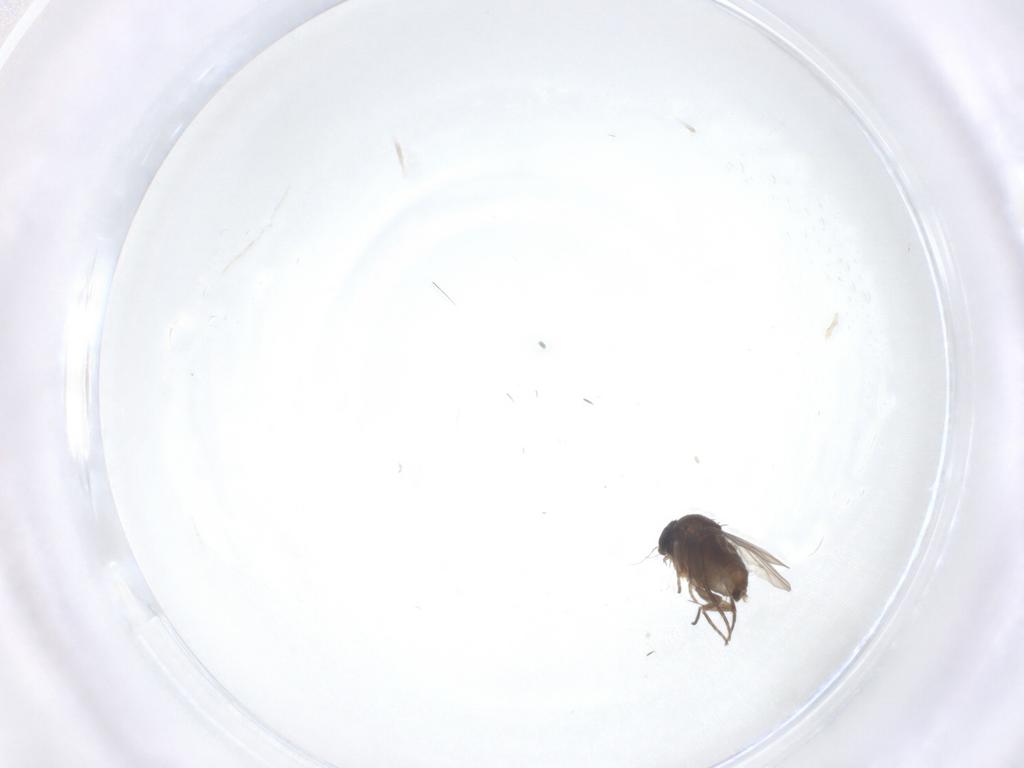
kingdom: Animalia
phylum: Arthropoda
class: Insecta
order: Diptera
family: Phoridae
